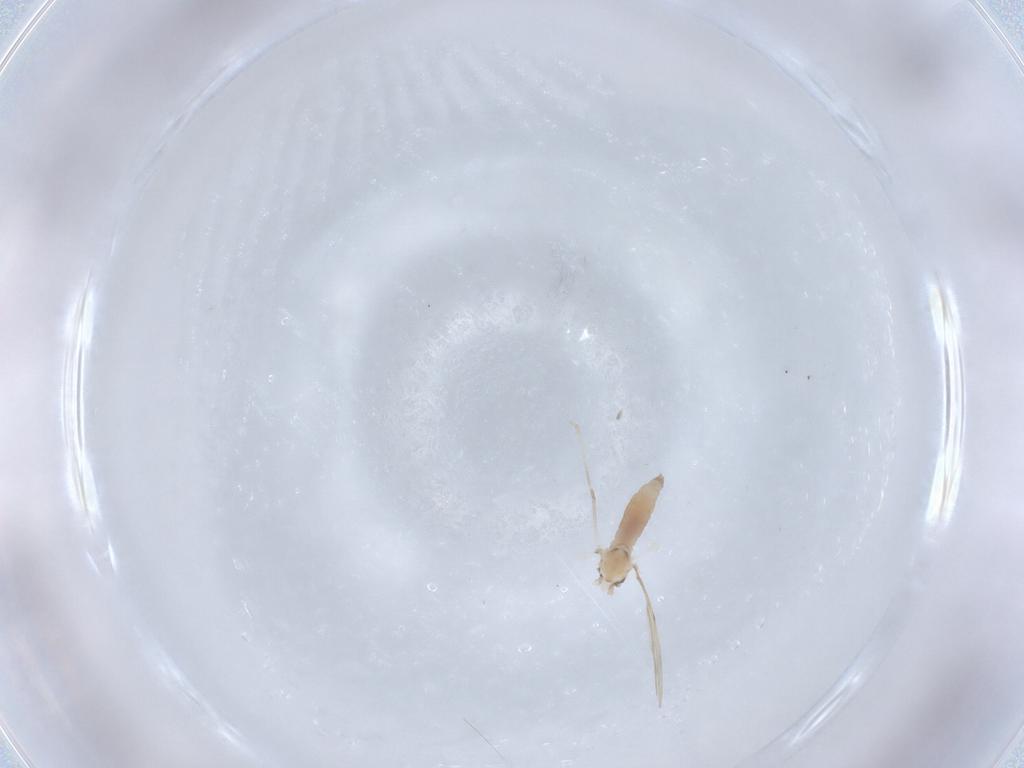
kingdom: Animalia
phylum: Arthropoda
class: Insecta
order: Diptera
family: Cecidomyiidae
